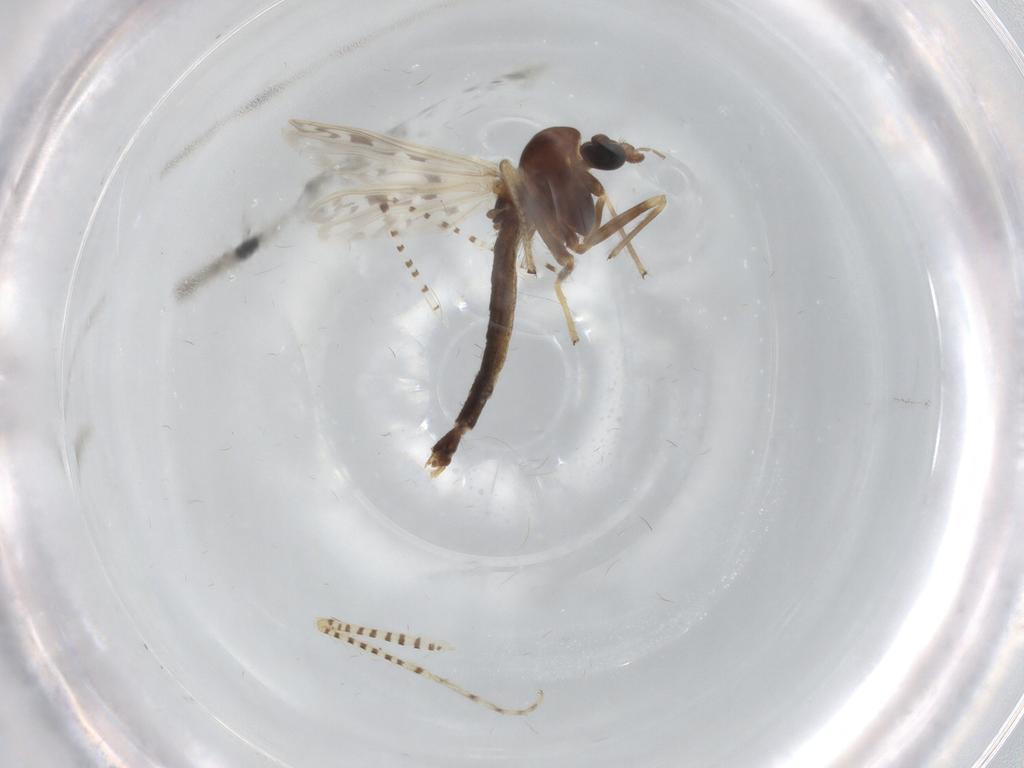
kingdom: Animalia
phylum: Arthropoda
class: Insecta
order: Diptera
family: Chironomidae
